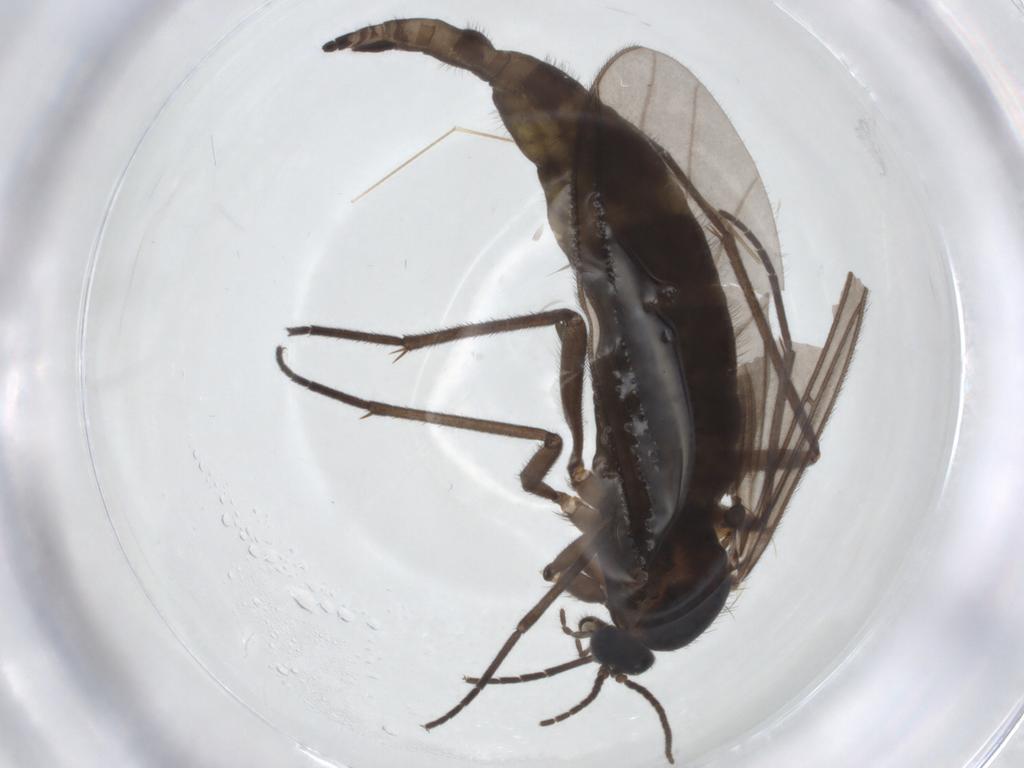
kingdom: Animalia
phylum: Arthropoda
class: Insecta
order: Diptera
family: Sciaridae
